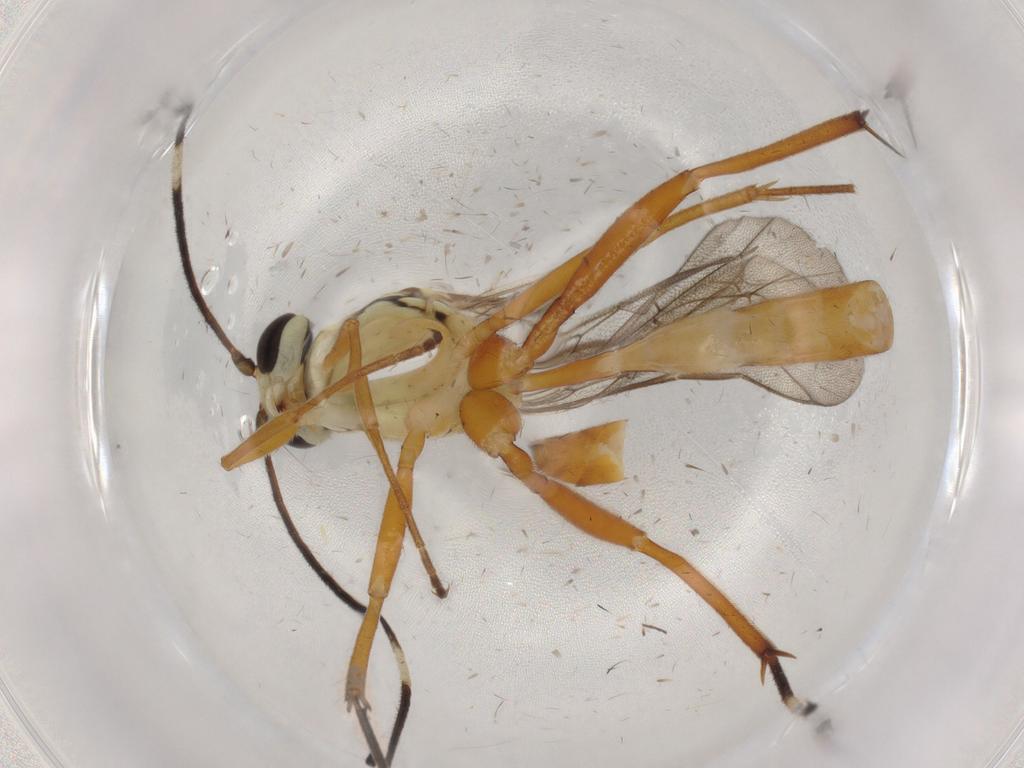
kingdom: Animalia
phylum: Arthropoda
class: Insecta
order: Hymenoptera
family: Ichneumonidae
